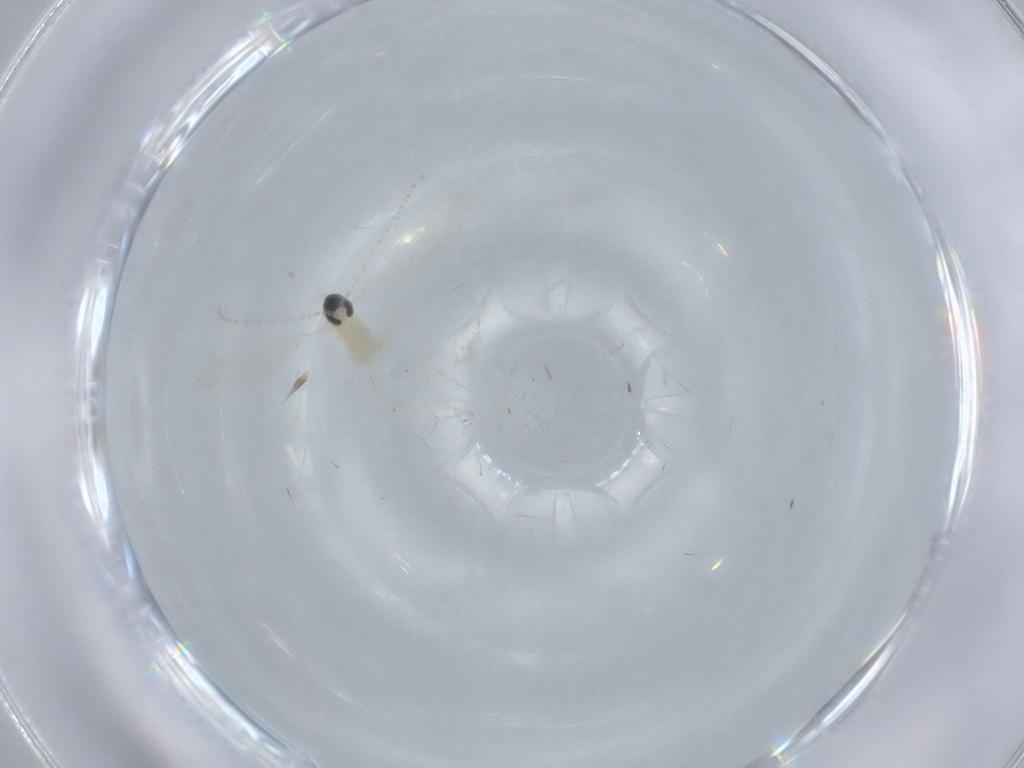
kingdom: Animalia
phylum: Arthropoda
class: Insecta
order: Diptera
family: Cecidomyiidae
